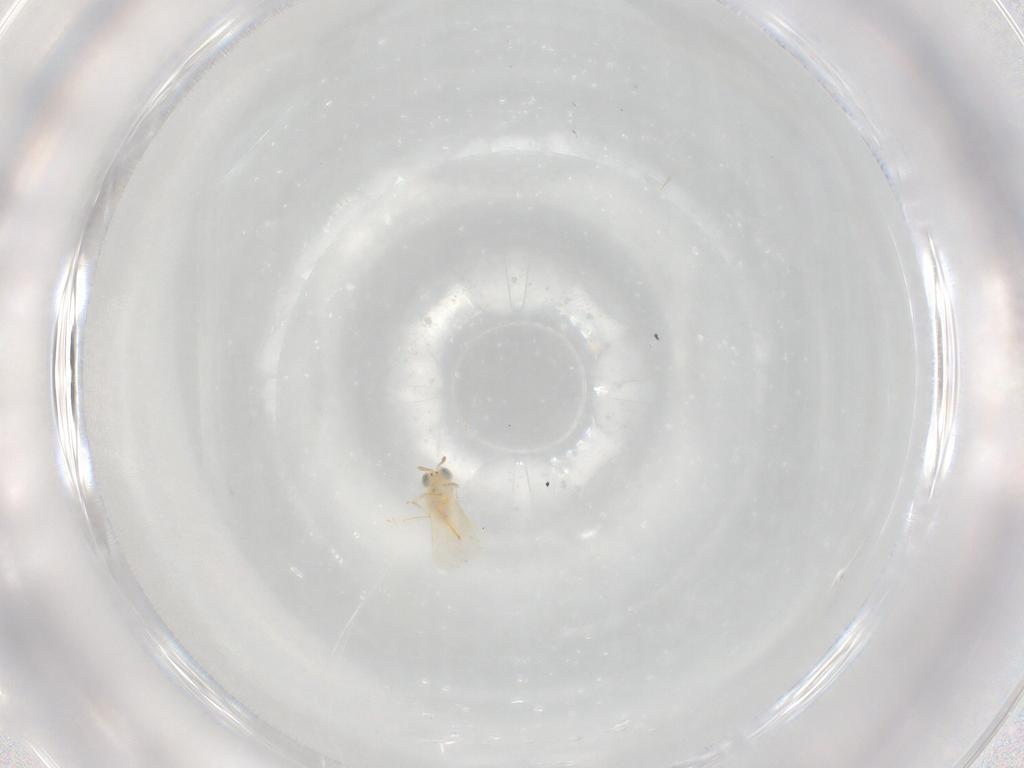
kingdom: Animalia
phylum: Arthropoda
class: Insecta
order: Hymenoptera
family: Aphelinidae
